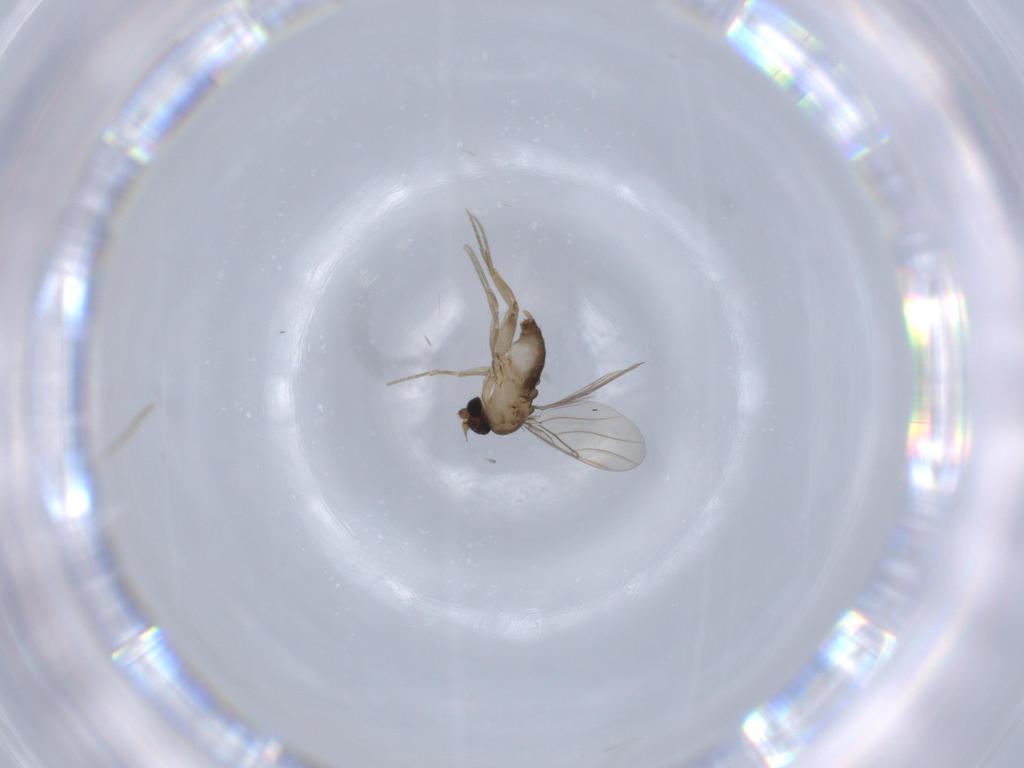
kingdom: Animalia
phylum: Arthropoda
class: Insecta
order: Diptera
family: Phoridae
